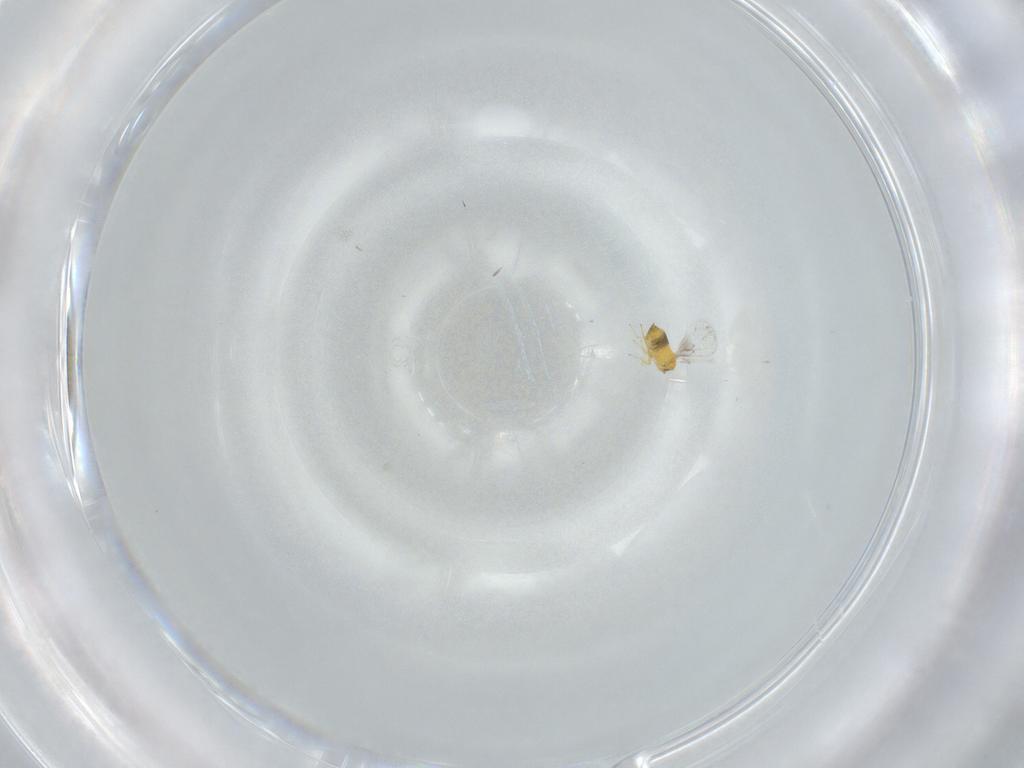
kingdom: Animalia
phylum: Arthropoda
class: Insecta
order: Hymenoptera
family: Trichogrammatidae
